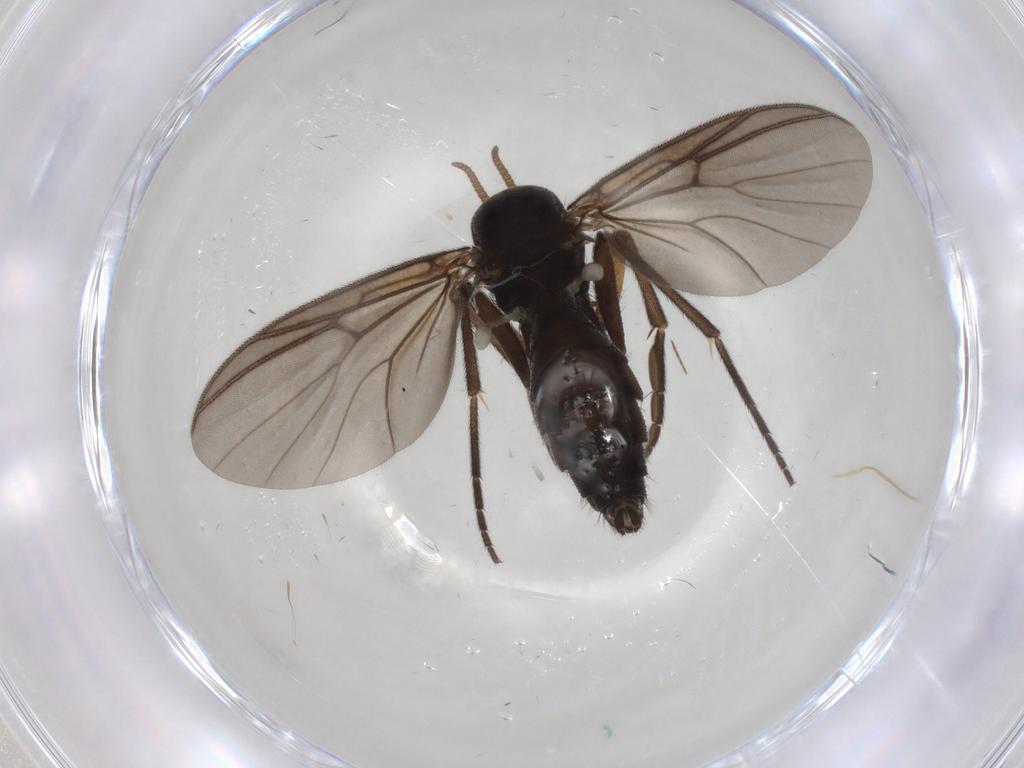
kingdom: Animalia
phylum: Arthropoda
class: Insecta
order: Diptera
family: Mycetophilidae
